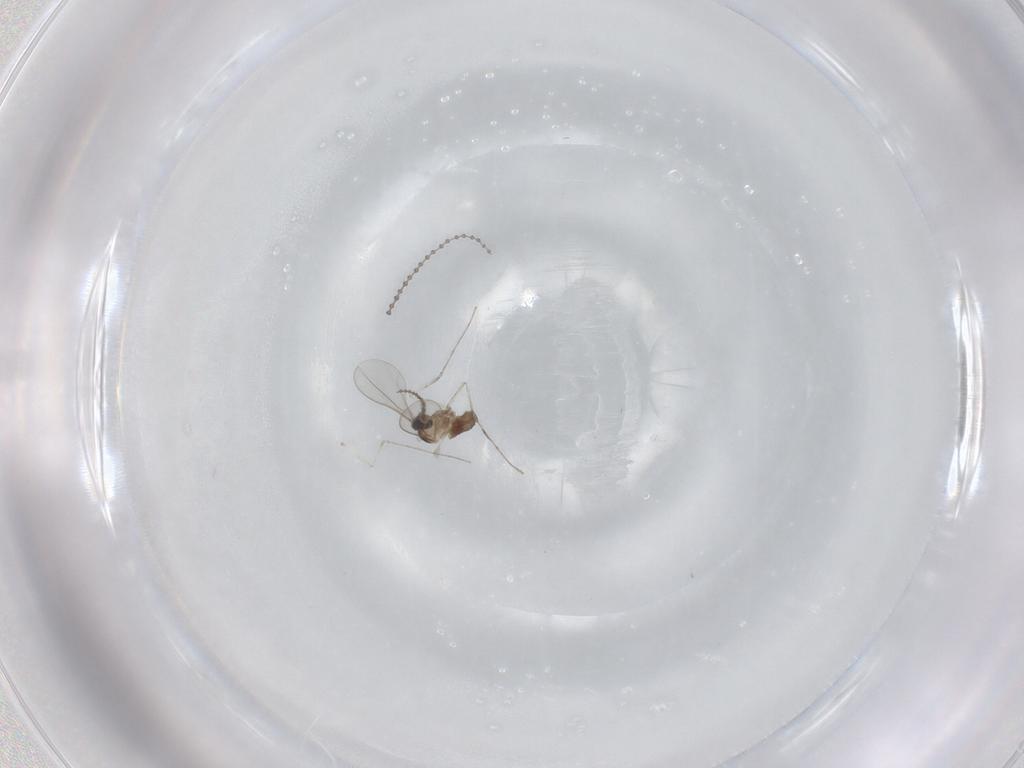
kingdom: Animalia
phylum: Arthropoda
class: Insecta
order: Diptera
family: Cecidomyiidae
